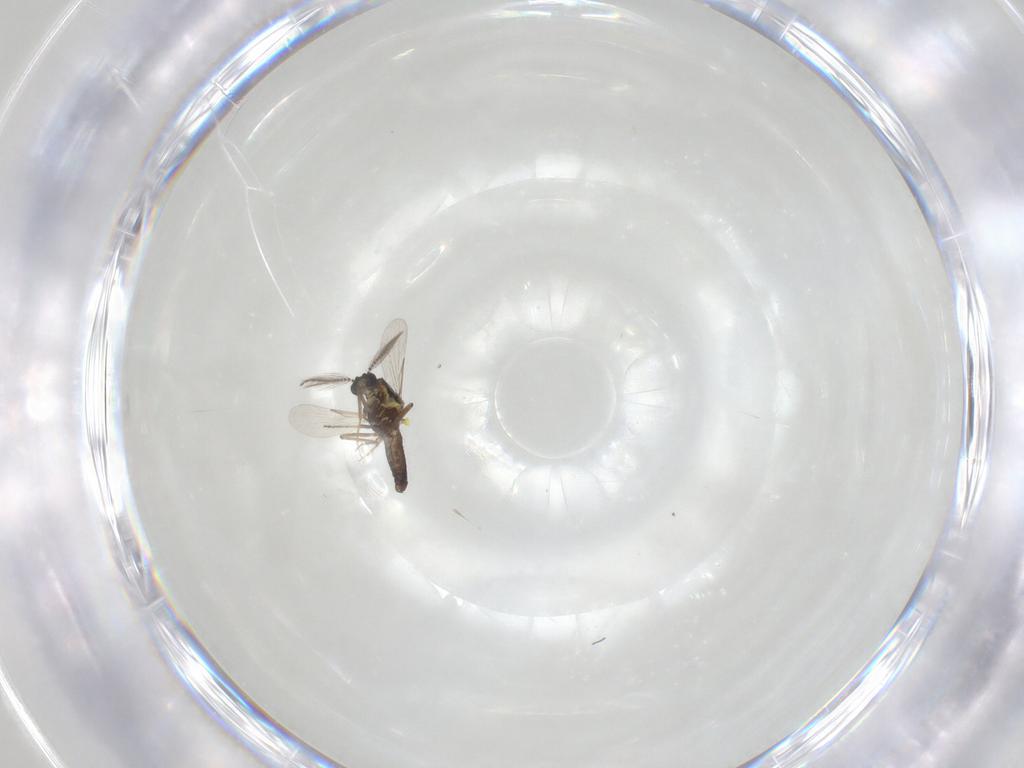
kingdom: Animalia
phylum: Arthropoda
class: Insecta
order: Diptera
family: Ceratopogonidae
